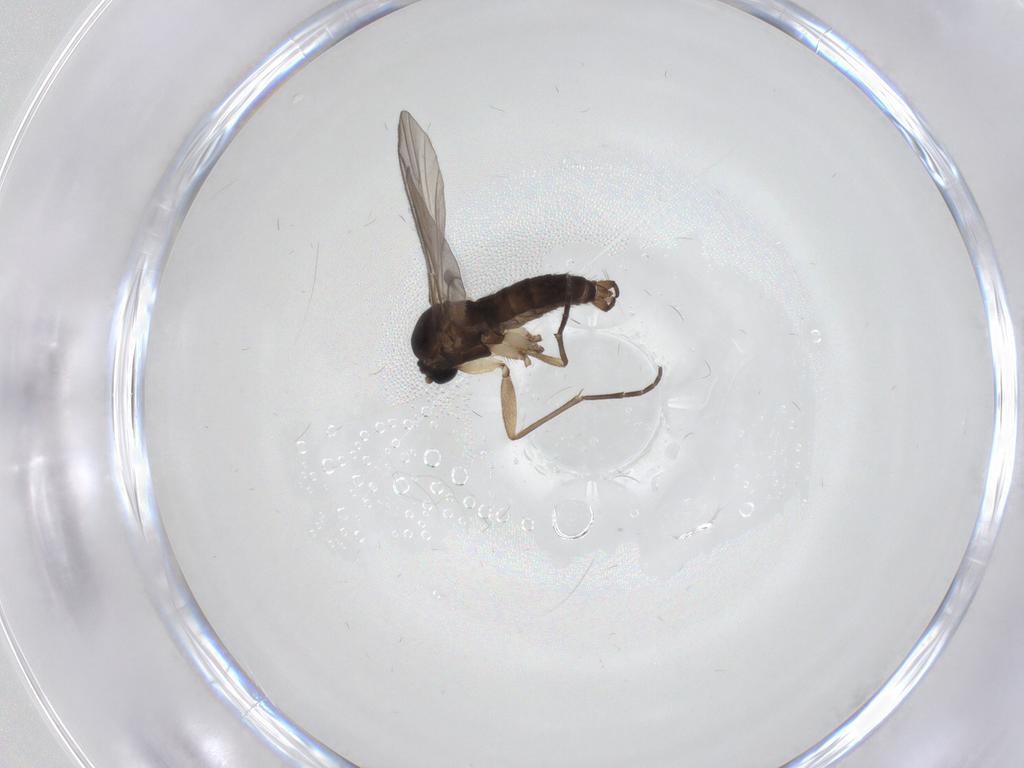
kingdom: Animalia
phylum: Arthropoda
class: Insecta
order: Diptera
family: Sciaridae
